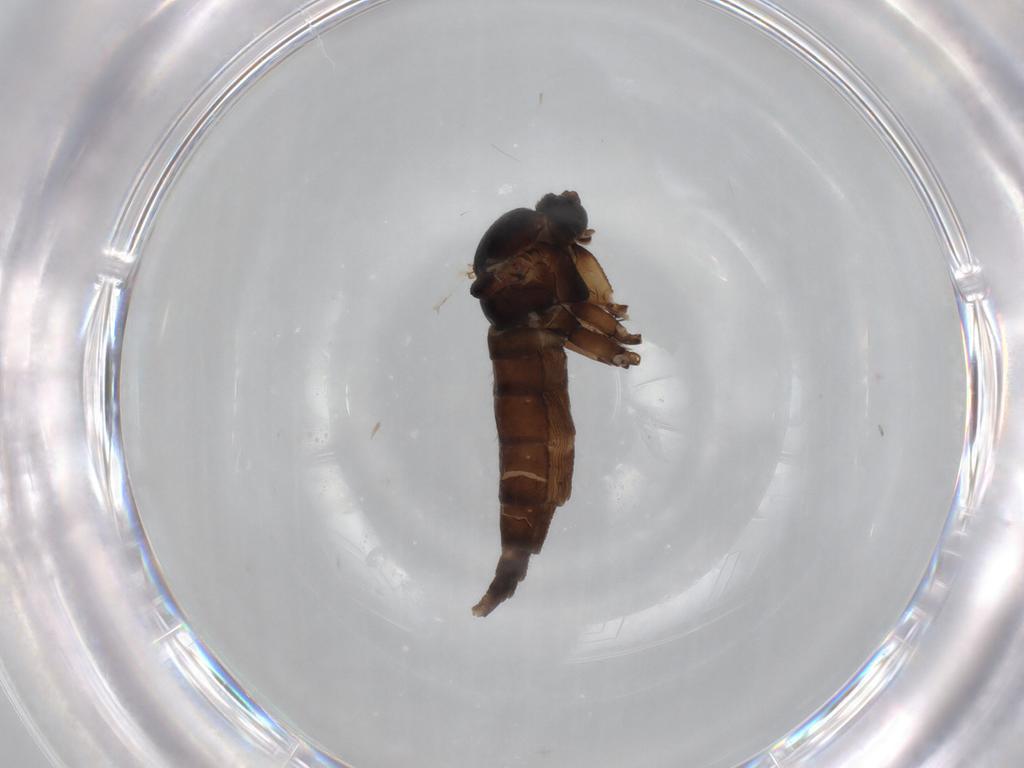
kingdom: Animalia
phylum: Arthropoda
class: Insecta
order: Diptera
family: Sciaridae
